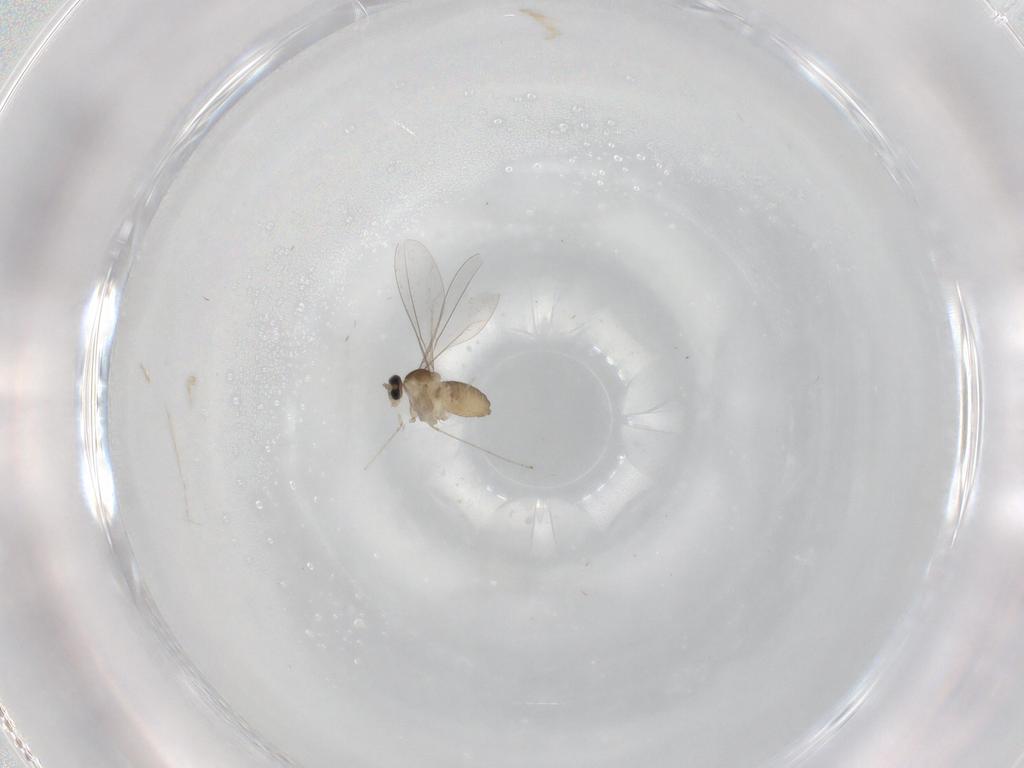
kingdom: Animalia
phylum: Arthropoda
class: Insecta
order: Diptera
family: Cecidomyiidae
